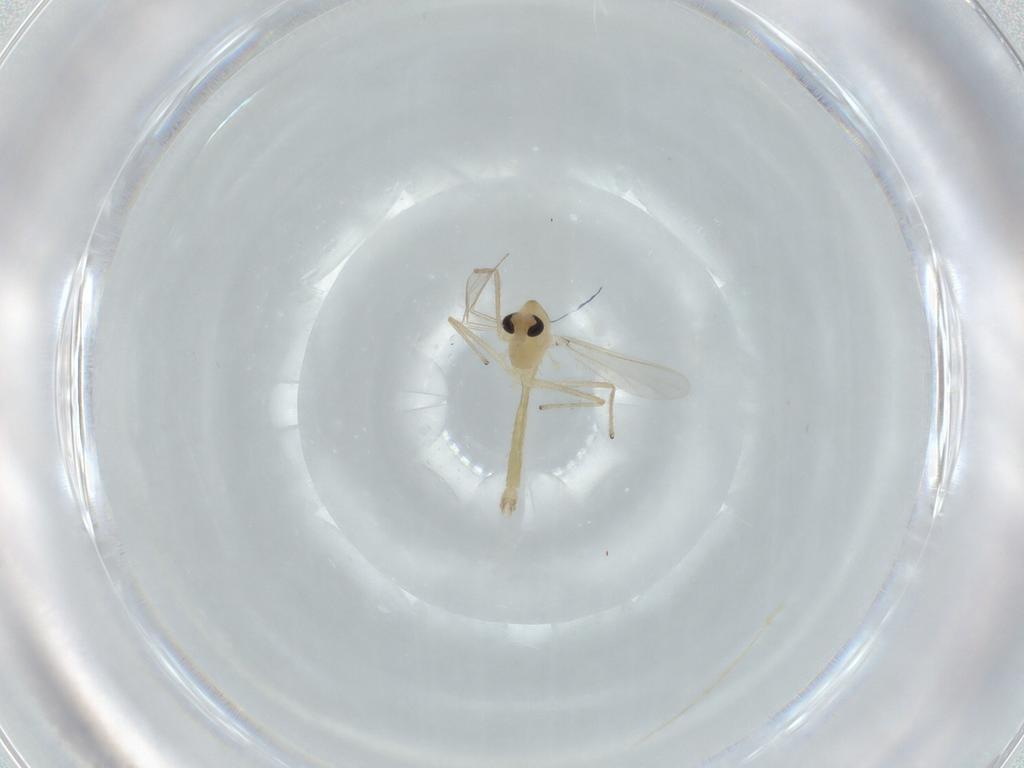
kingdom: Animalia
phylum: Arthropoda
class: Insecta
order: Diptera
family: Chironomidae
